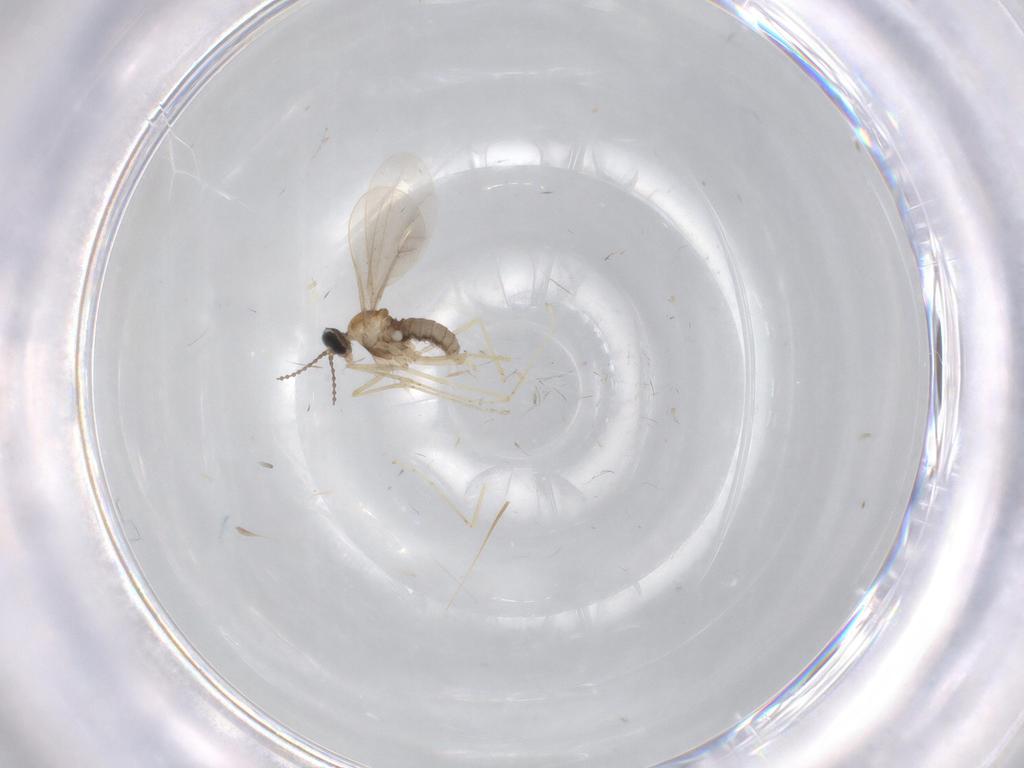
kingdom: Animalia
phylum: Arthropoda
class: Insecta
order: Diptera
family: Cecidomyiidae
